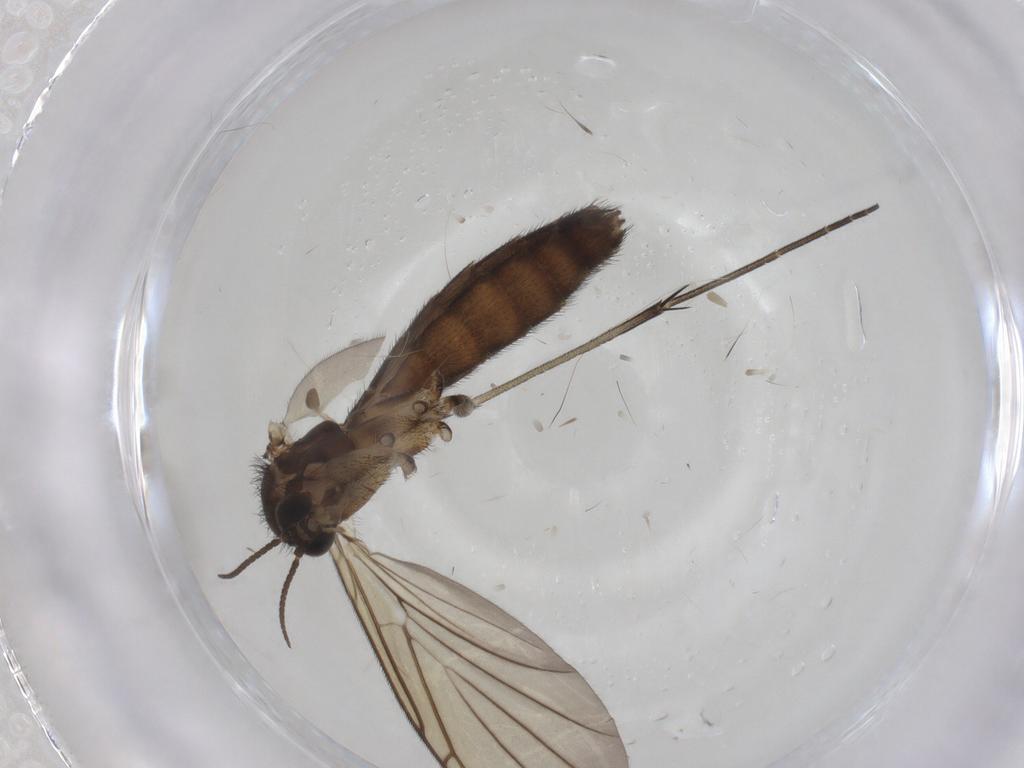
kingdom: Animalia
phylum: Arthropoda
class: Insecta
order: Diptera
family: Keroplatidae
